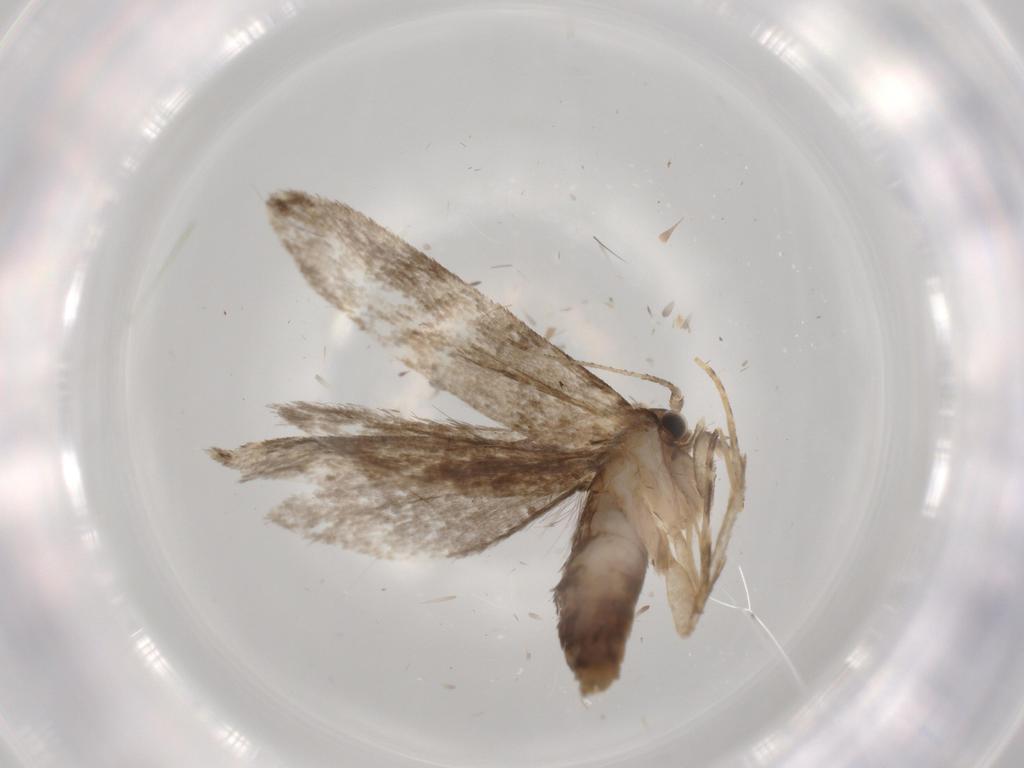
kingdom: Animalia
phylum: Arthropoda
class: Insecta
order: Lepidoptera
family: Tineidae
